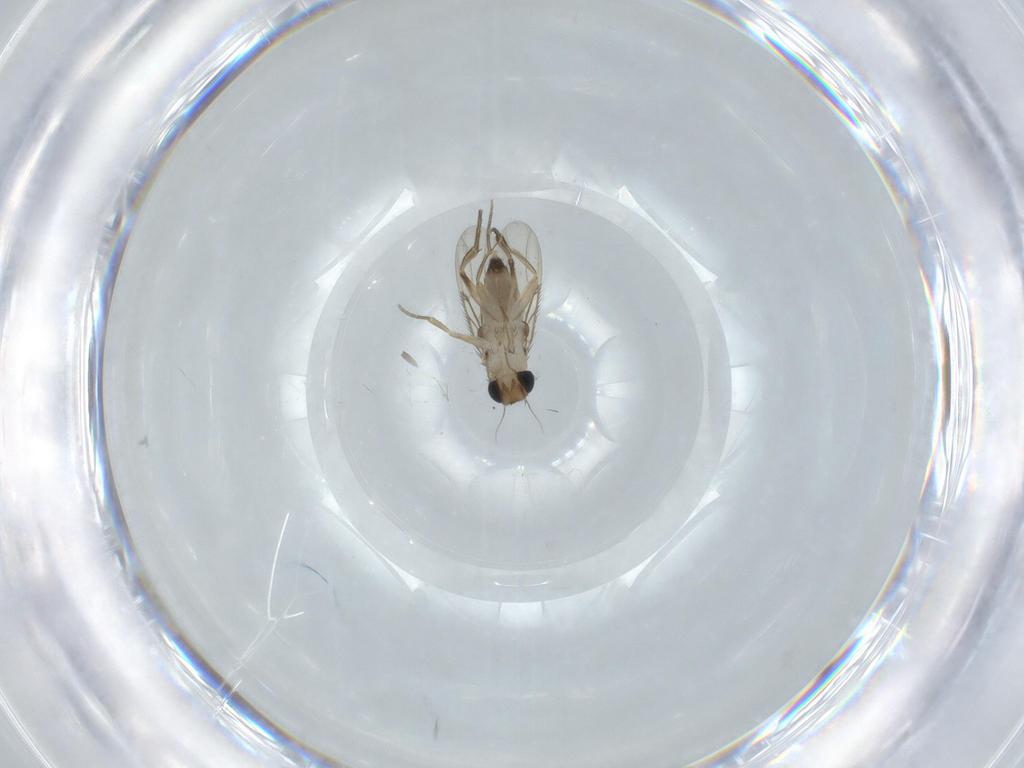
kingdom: Animalia
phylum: Arthropoda
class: Insecta
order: Diptera
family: Phoridae
